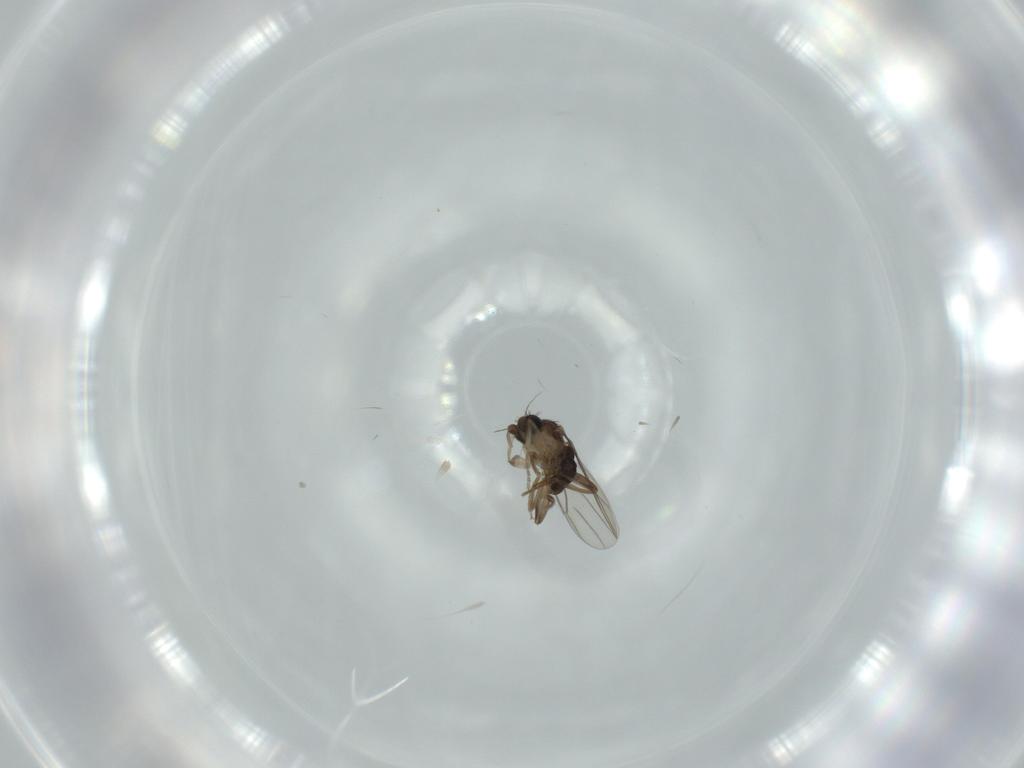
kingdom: Animalia
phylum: Arthropoda
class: Insecta
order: Diptera
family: Phoridae
